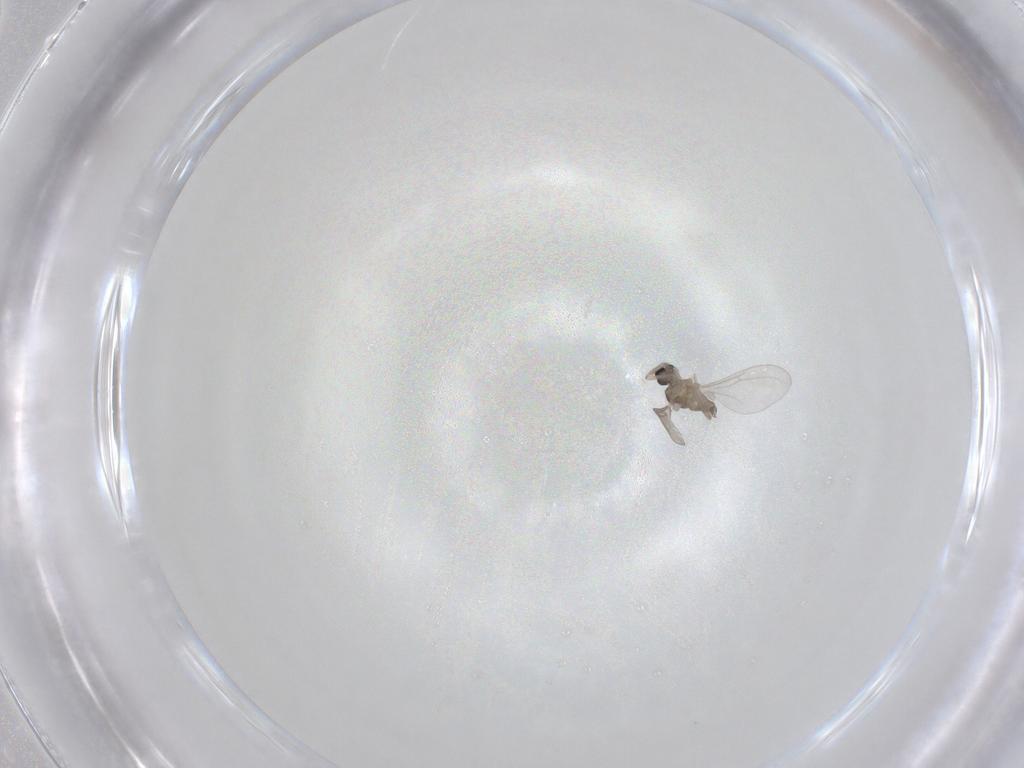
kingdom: Animalia
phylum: Arthropoda
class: Insecta
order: Diptera
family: Cecidomyiidae
